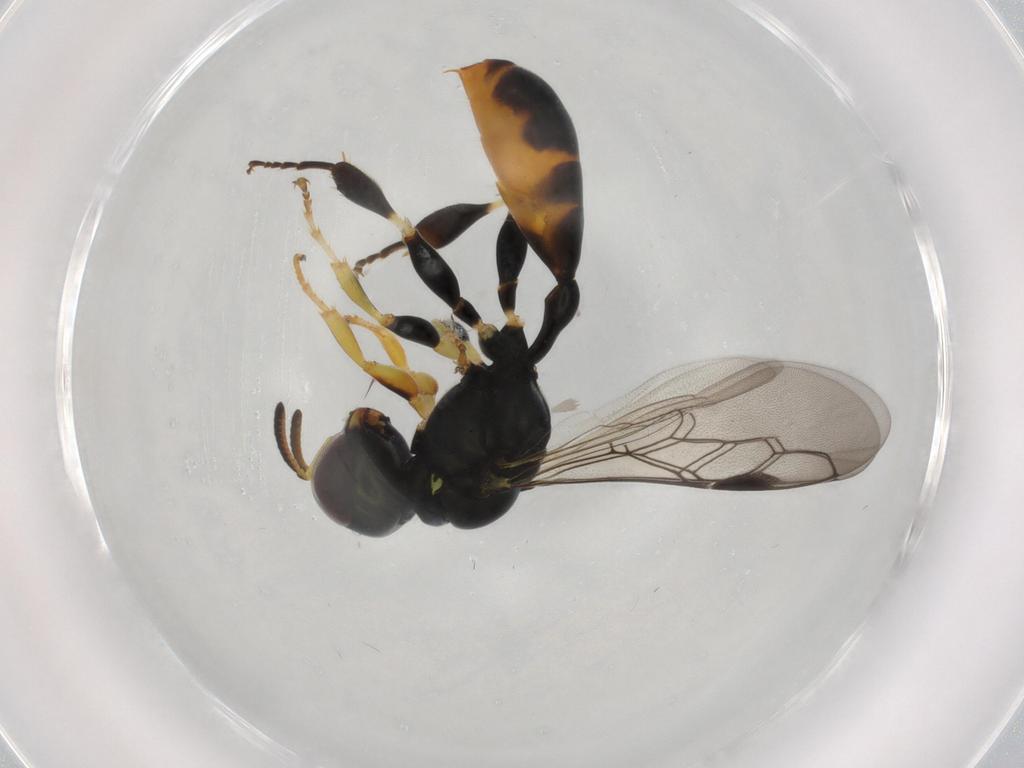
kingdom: Animalia
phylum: Arthropoda
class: Insecta
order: Hymenoptera
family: Crabronidae
